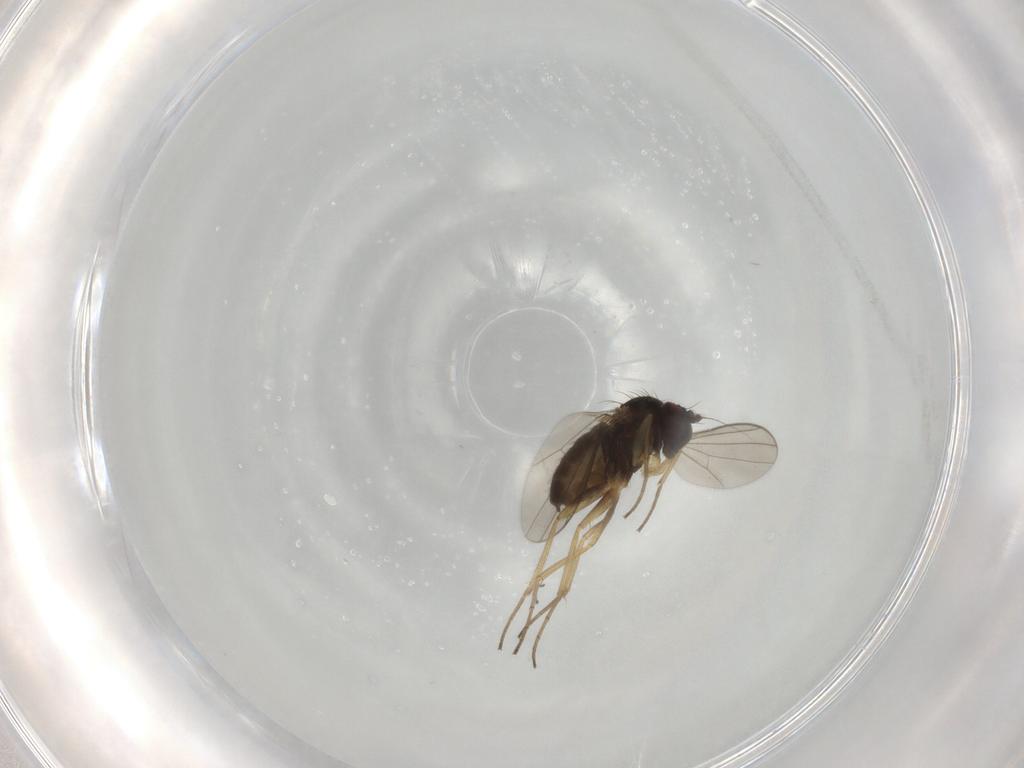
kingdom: Animalia
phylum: Arthropoda
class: Insecta
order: Diptera
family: Dolichopodidae
